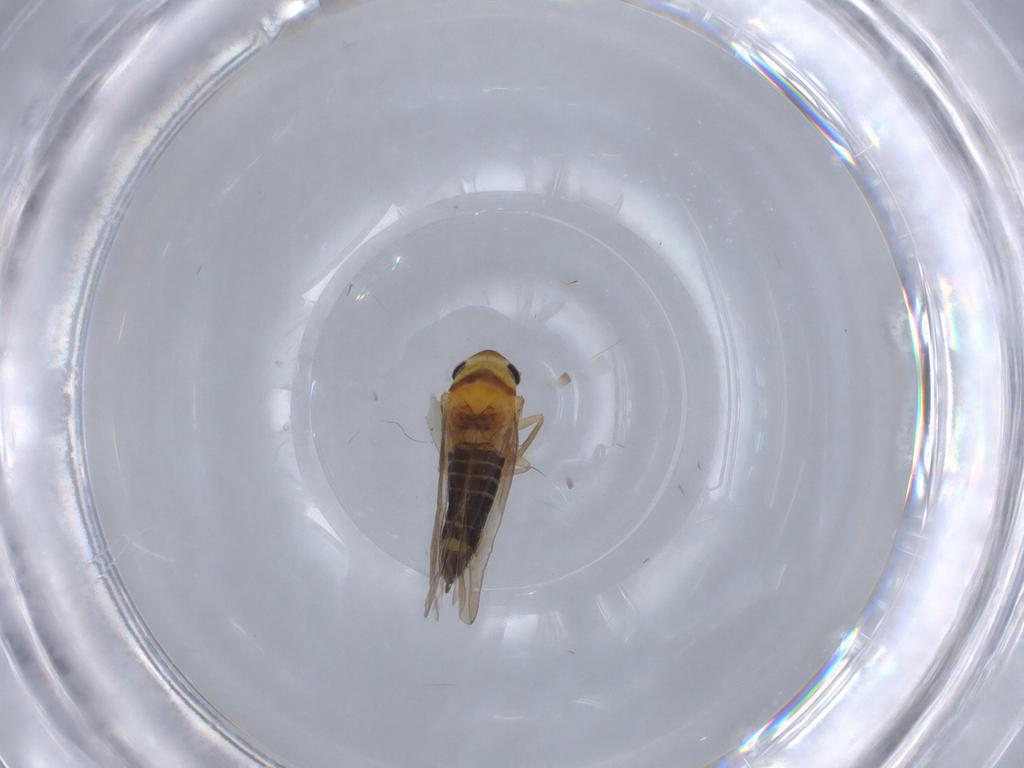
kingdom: Animalia
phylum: Arthropoda
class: Insecta
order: Hemiptera
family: Cicadellidae
